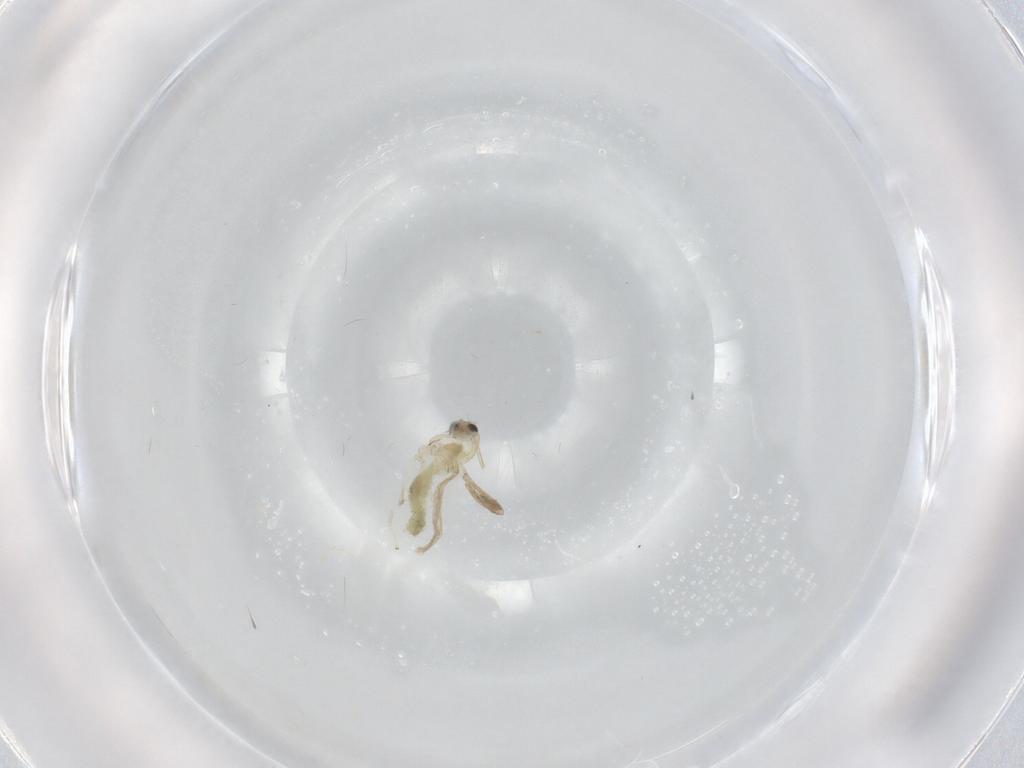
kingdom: Animalia
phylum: Arthropoda
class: Insecta
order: Diptera
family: Chironomidae
